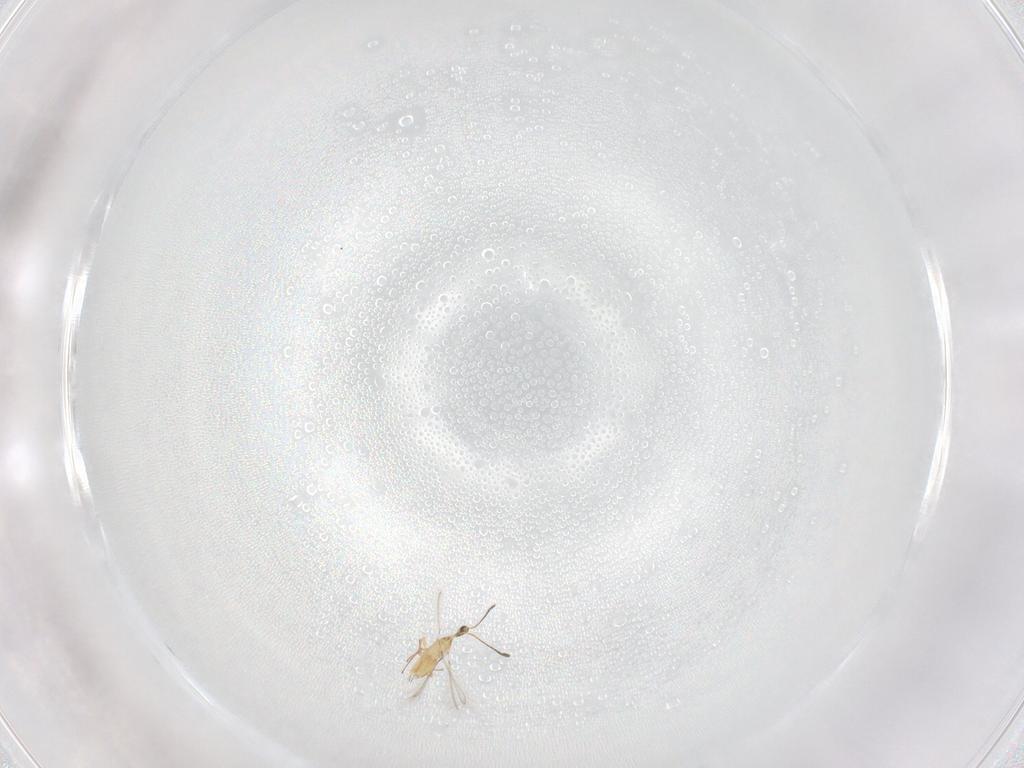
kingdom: Animalia
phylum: Arthropoda
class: Insecta
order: Hymenoptera
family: Mymaridae
